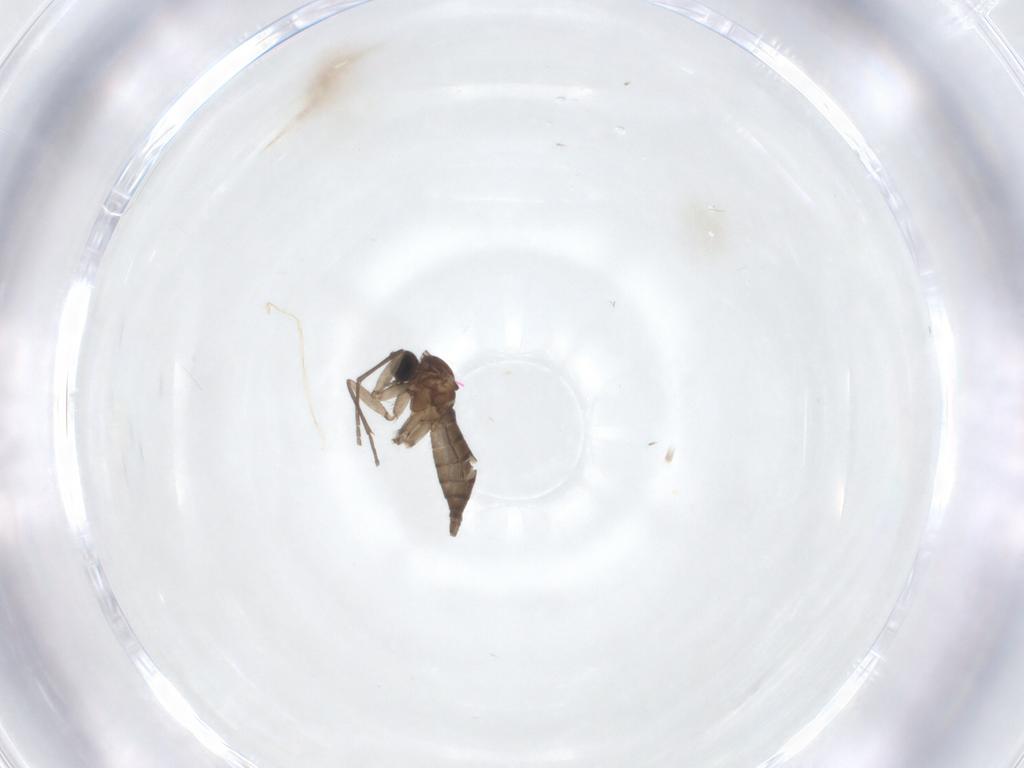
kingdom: Animalia
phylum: Arthropoda
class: Insecta
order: Diptera
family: Sciaridae
